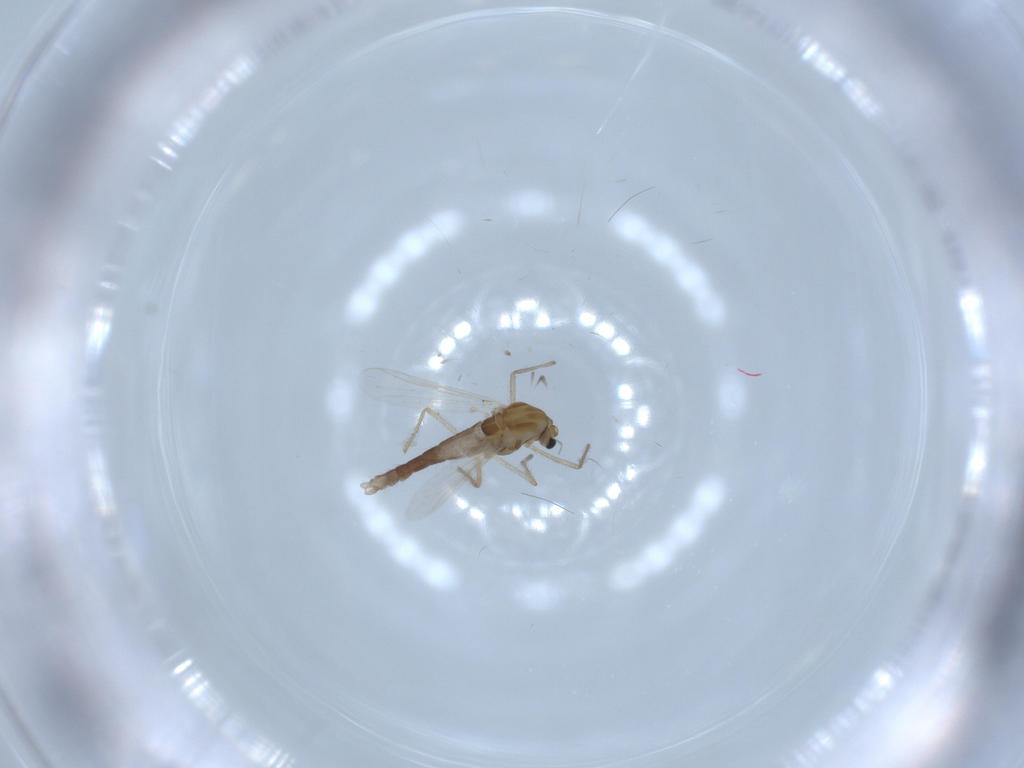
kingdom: Animalia
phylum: Arthropoda
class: Insecta
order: Diptera
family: Chironomidae
